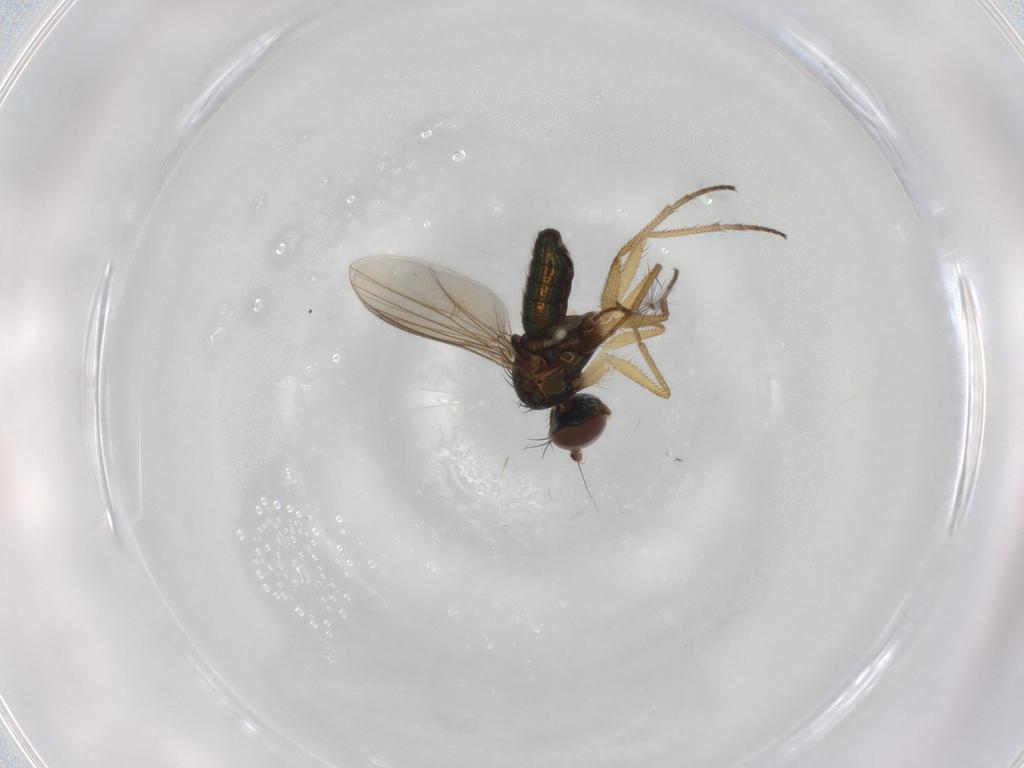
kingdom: Animalia
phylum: Arthropoda
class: Insecta
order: Diptera
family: Chironomidae
